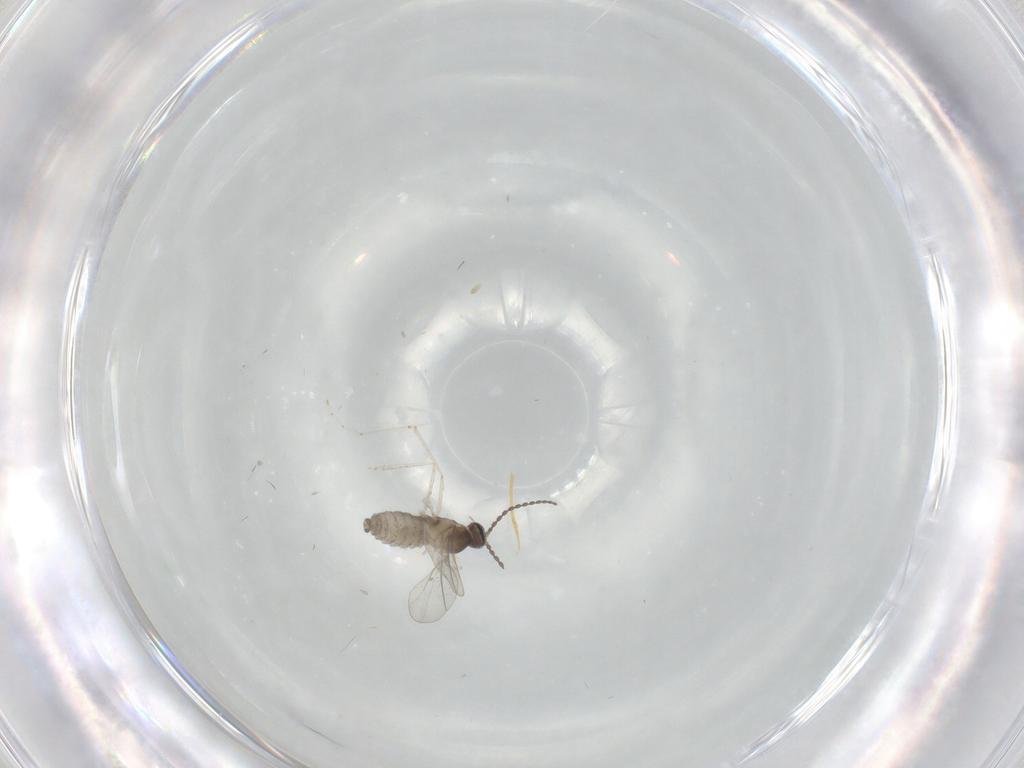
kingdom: Animalia
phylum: Arthropoda
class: Insecta
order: Diptera
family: Cecidomyiidae
